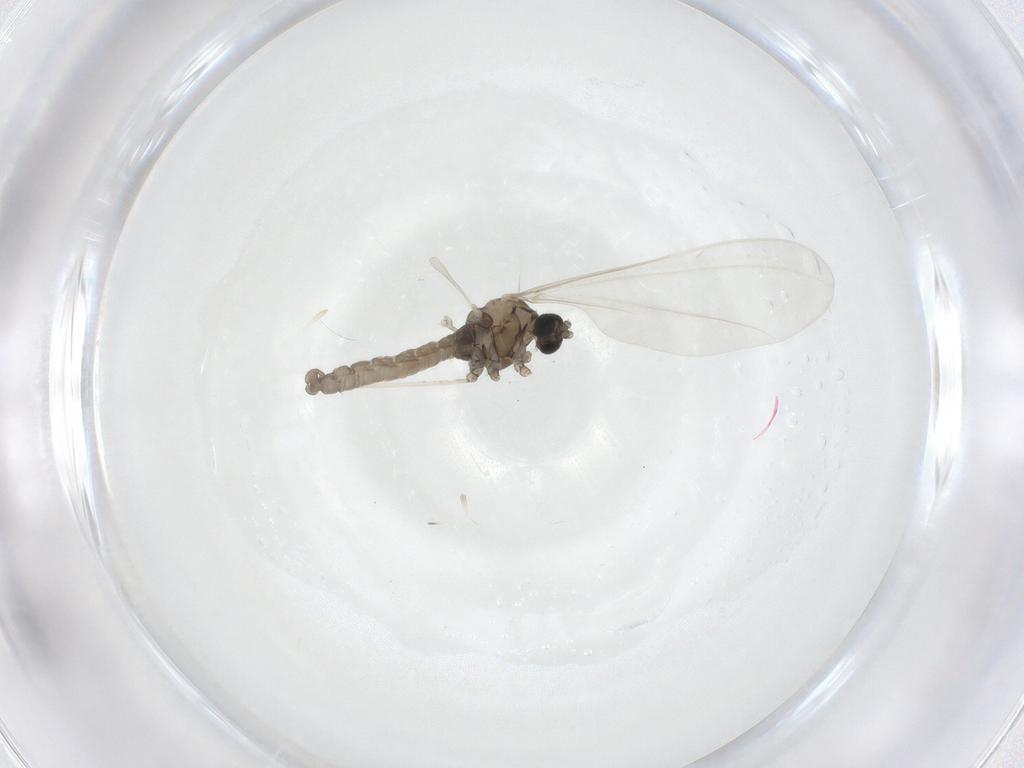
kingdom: Animalia
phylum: Arthropoda
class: Insecta
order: Diptera
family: Cecidomyiidae
